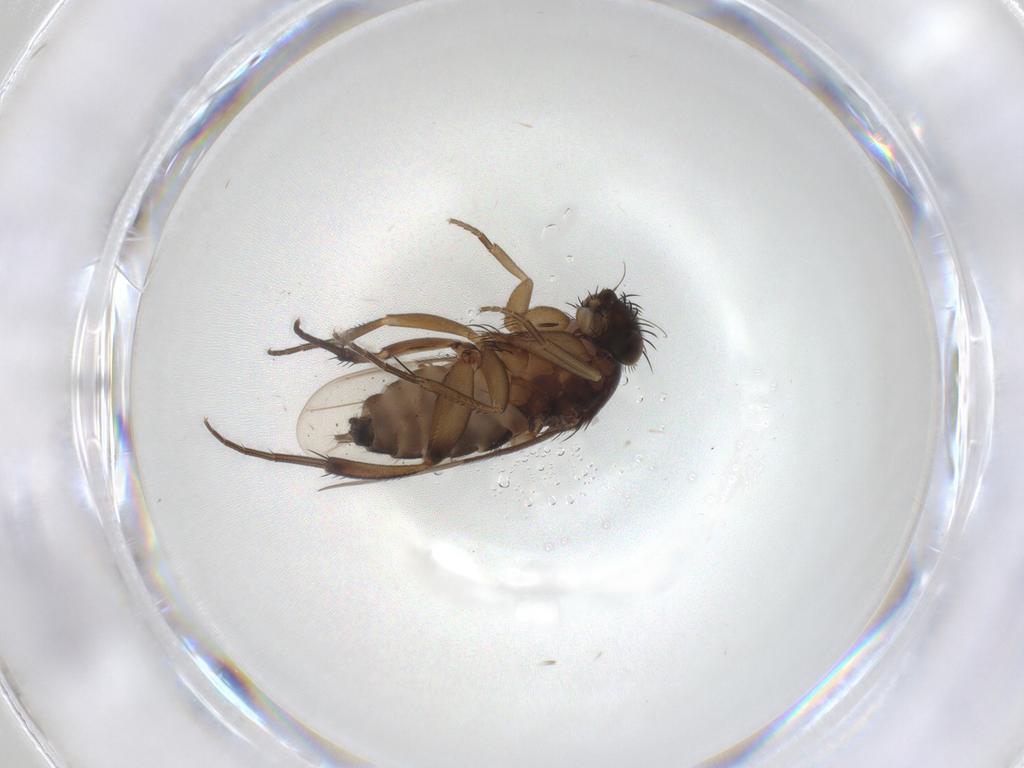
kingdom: Animalia
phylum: Arthropoda
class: Insecta
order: Diptera
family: Phoridae
